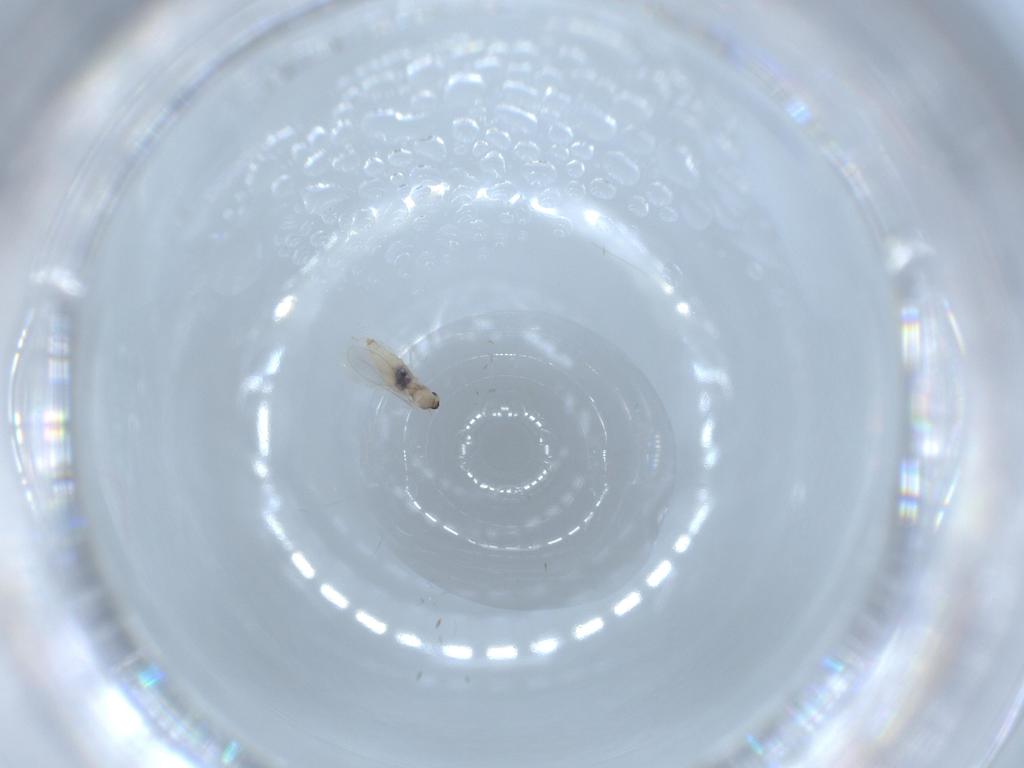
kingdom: Animalia
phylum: Arthropoda
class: Insecta
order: Diptera
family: Cecidomyiidae
